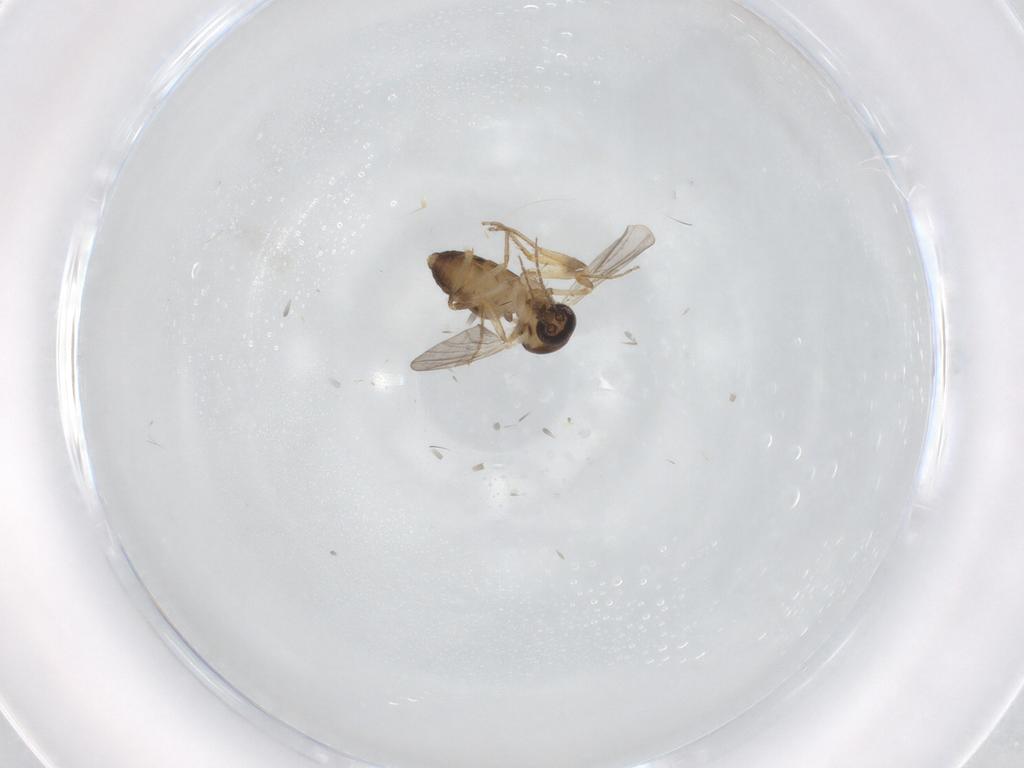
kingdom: Animalia
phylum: Arthropoda
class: Insecta
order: Diptera
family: Ceratopogonidae
